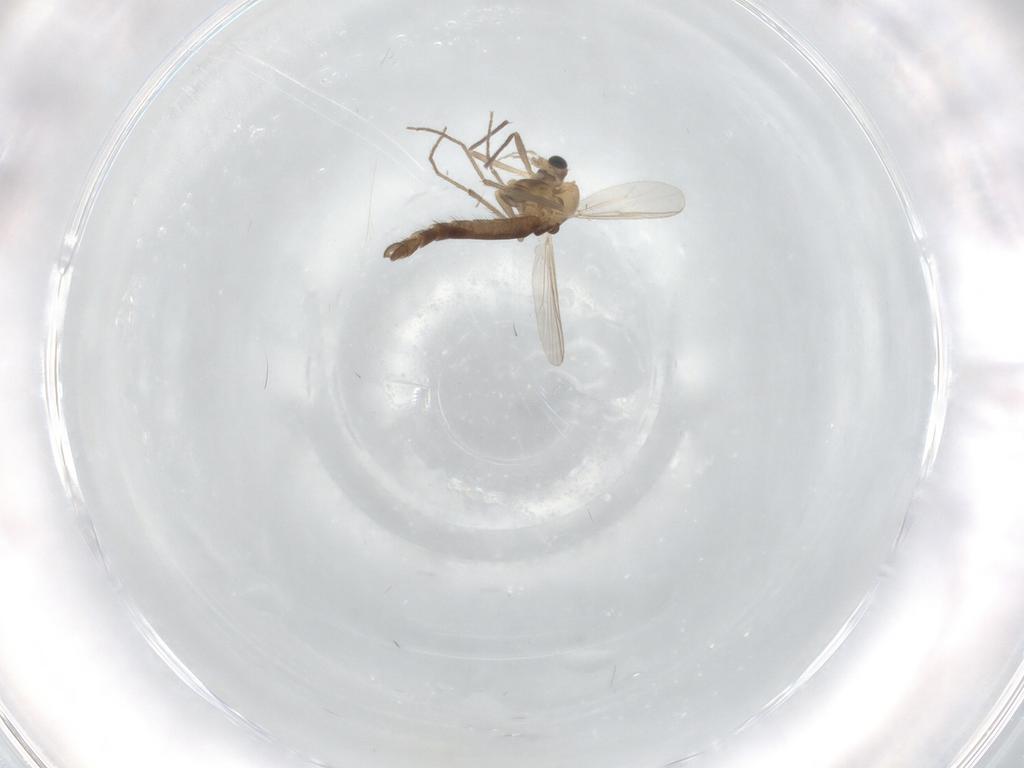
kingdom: Animalia
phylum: Arthropoda
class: Insecta
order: Diptera
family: Chironomidae
